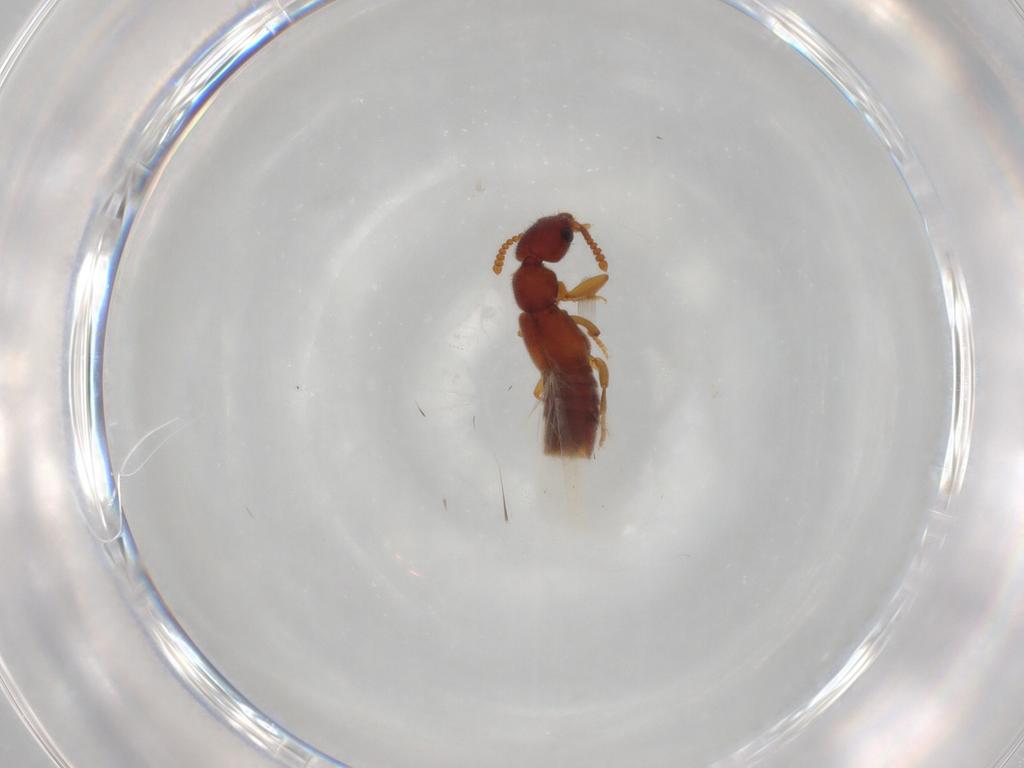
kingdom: Animalia
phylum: Arthropoda
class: Insecta
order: Coleoptera
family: Staphylinidae
